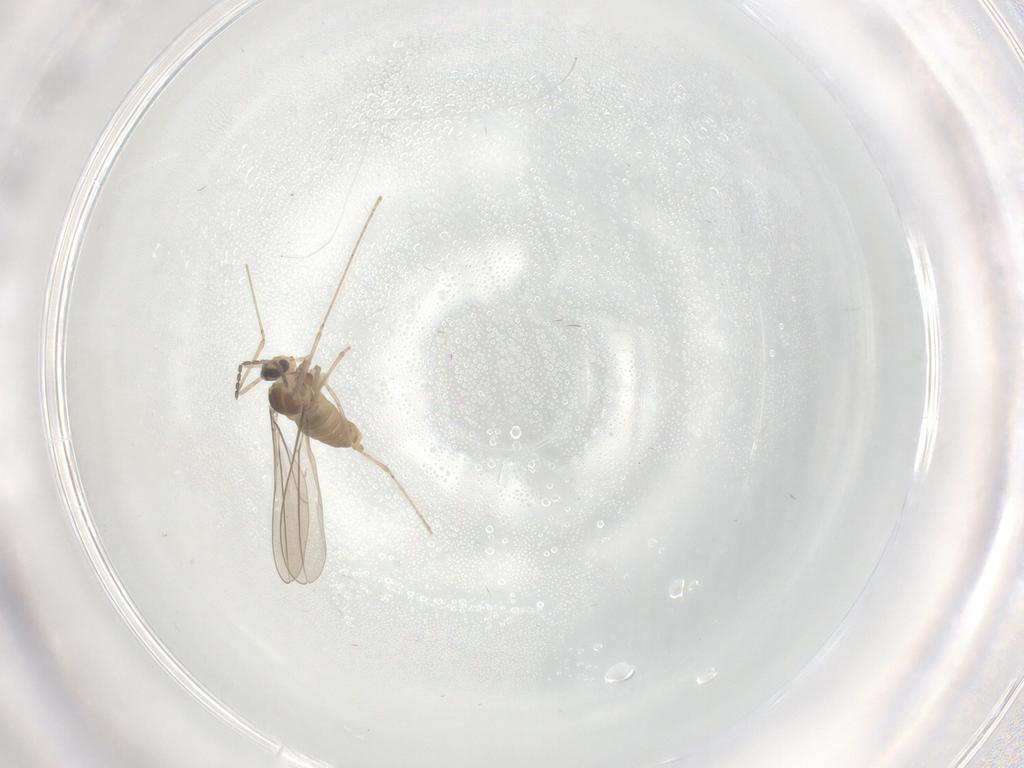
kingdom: Animalia
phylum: Arthropoda
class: Insecta
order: Diptera
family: Cecidomyiidae
